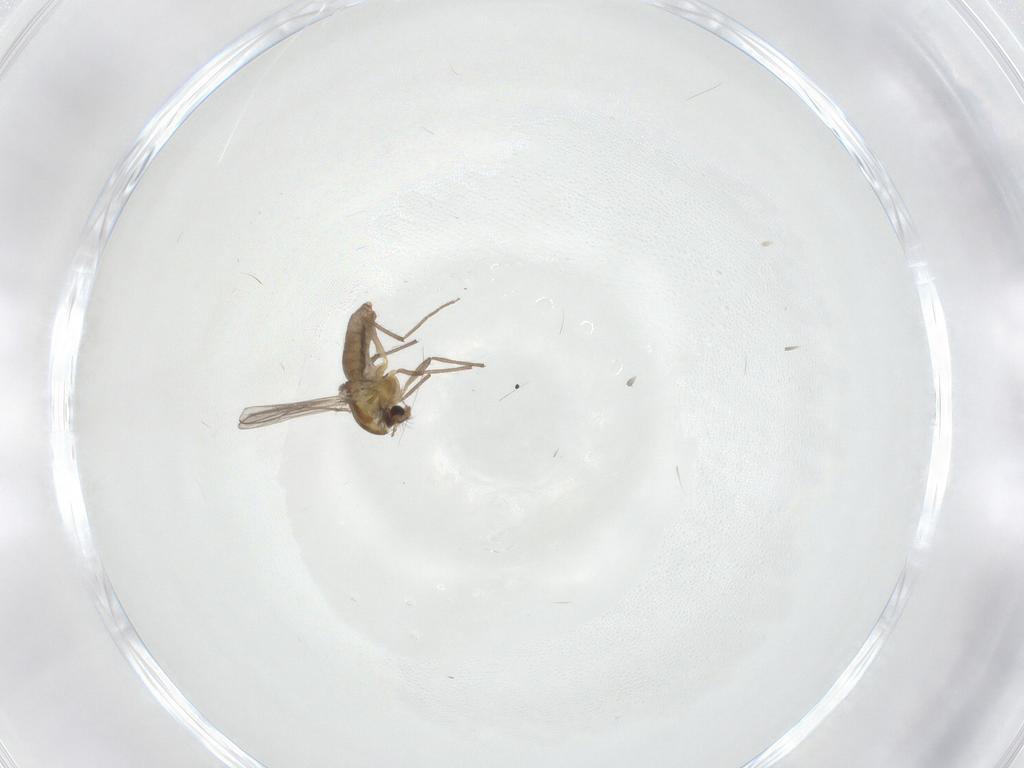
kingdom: Animalia
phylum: Arthropoda
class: Insecta
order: Diptera
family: Chironomidae
